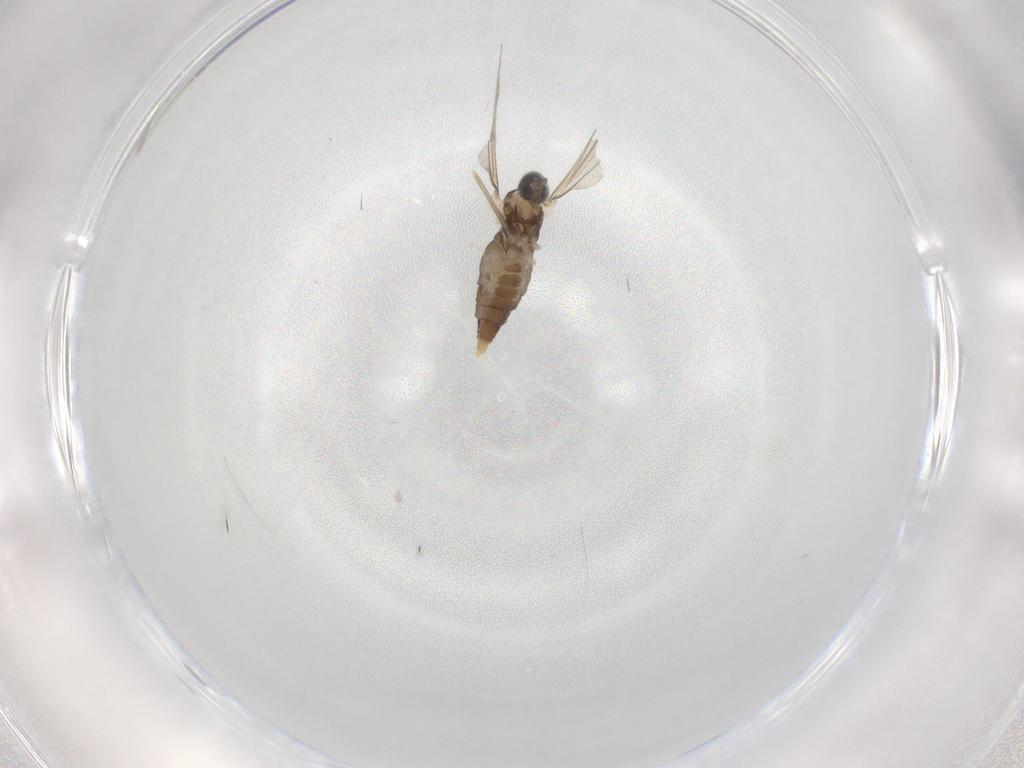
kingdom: Animalia
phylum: Arthropoda
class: Insecta
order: Diptera
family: Cecidomyiidae
